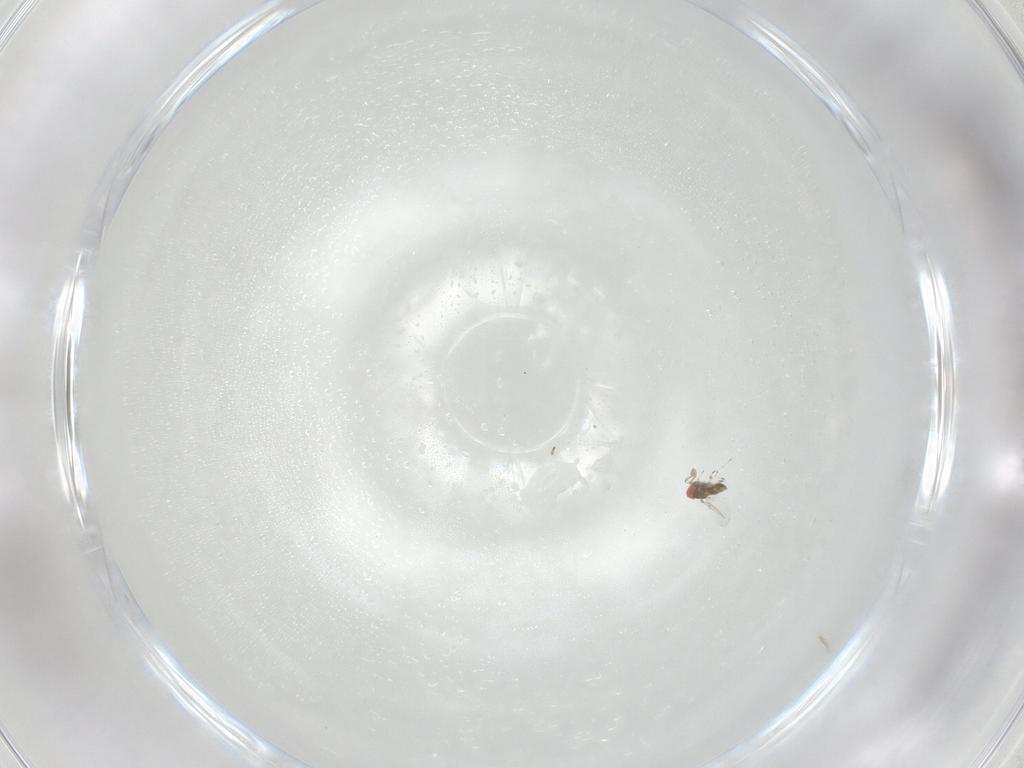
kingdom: Animalia
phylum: Arthropoda
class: Insecta
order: Hymenoptera
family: Trichogrammatidae
